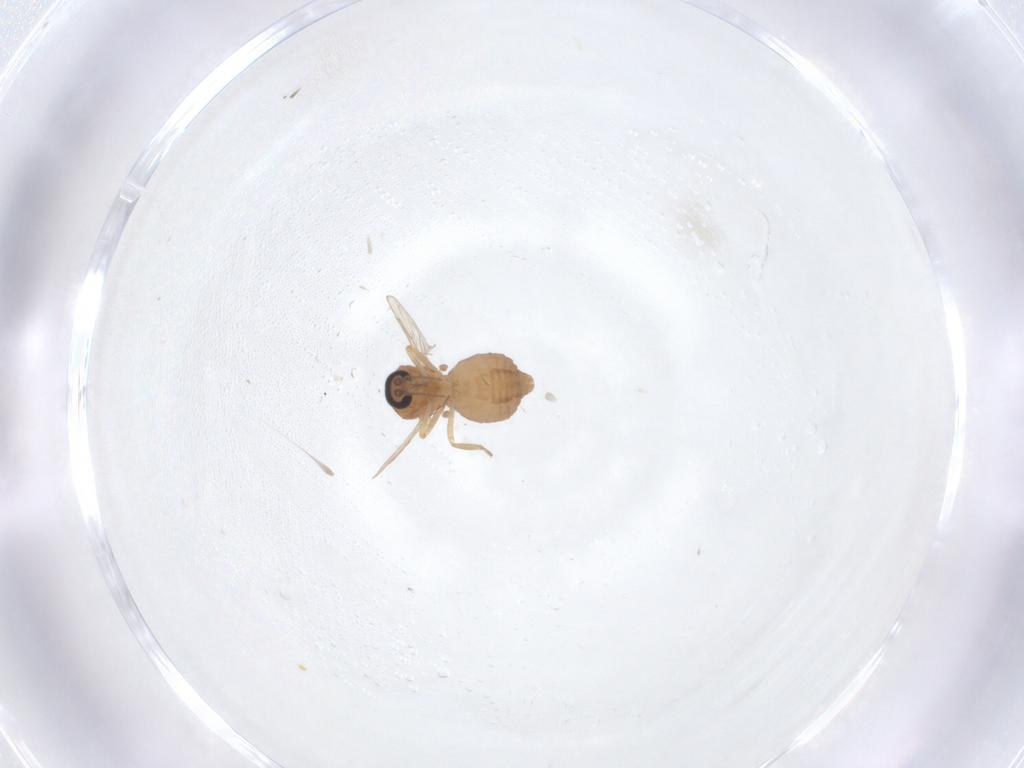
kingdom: Animalia
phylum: Arthropoda
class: Insecta
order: Diptera
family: Ceratopogonidae
